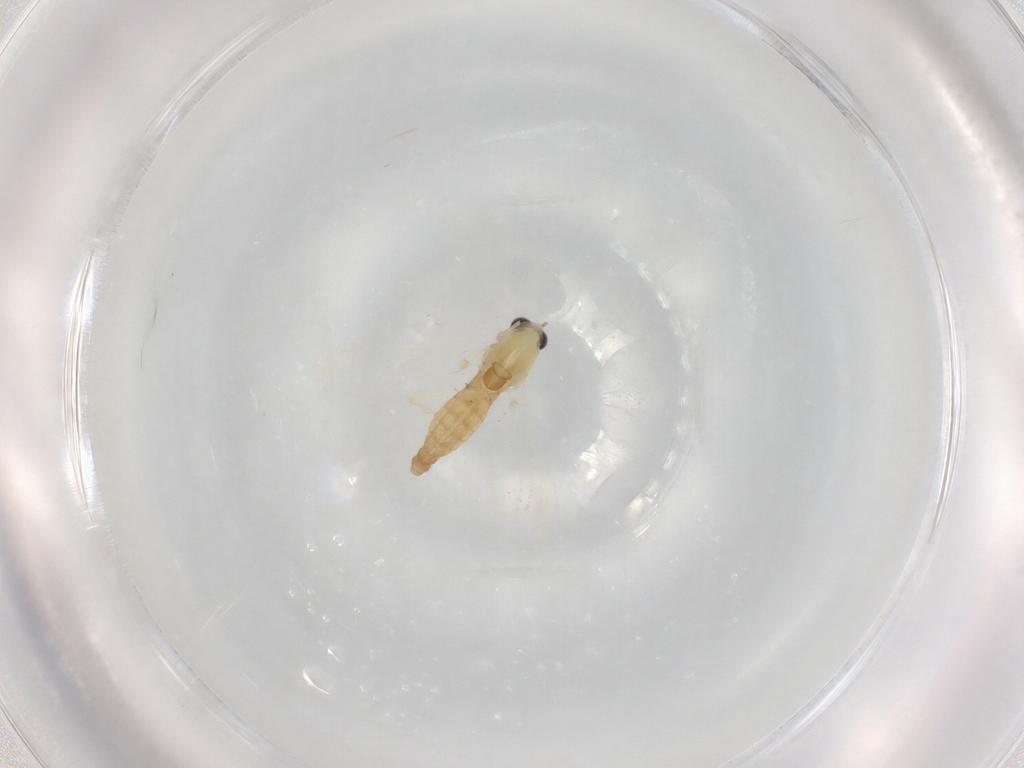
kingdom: Animalia
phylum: Arthropoda
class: Insecta
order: Diptera
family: Sciaridae
